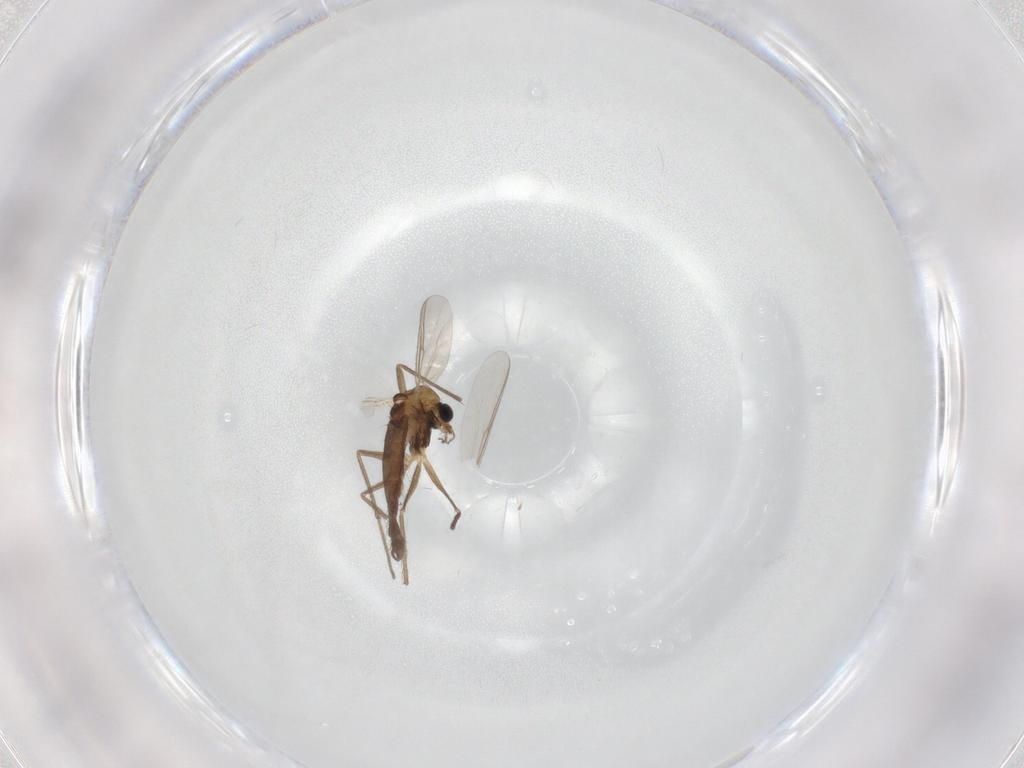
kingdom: Animalia
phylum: Arthropoda
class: Insecta
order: Diptera
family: Chironomidae
